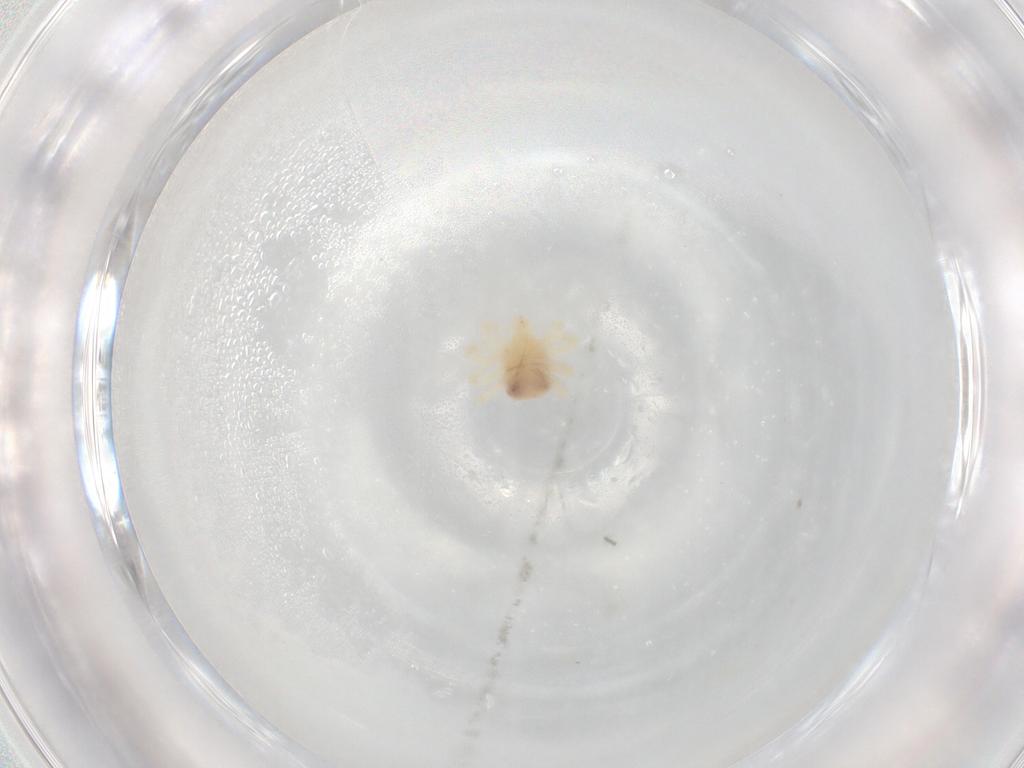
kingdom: Animalia
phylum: Arthropoda
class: Arachnida
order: Trombidiformes
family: Anystidae
